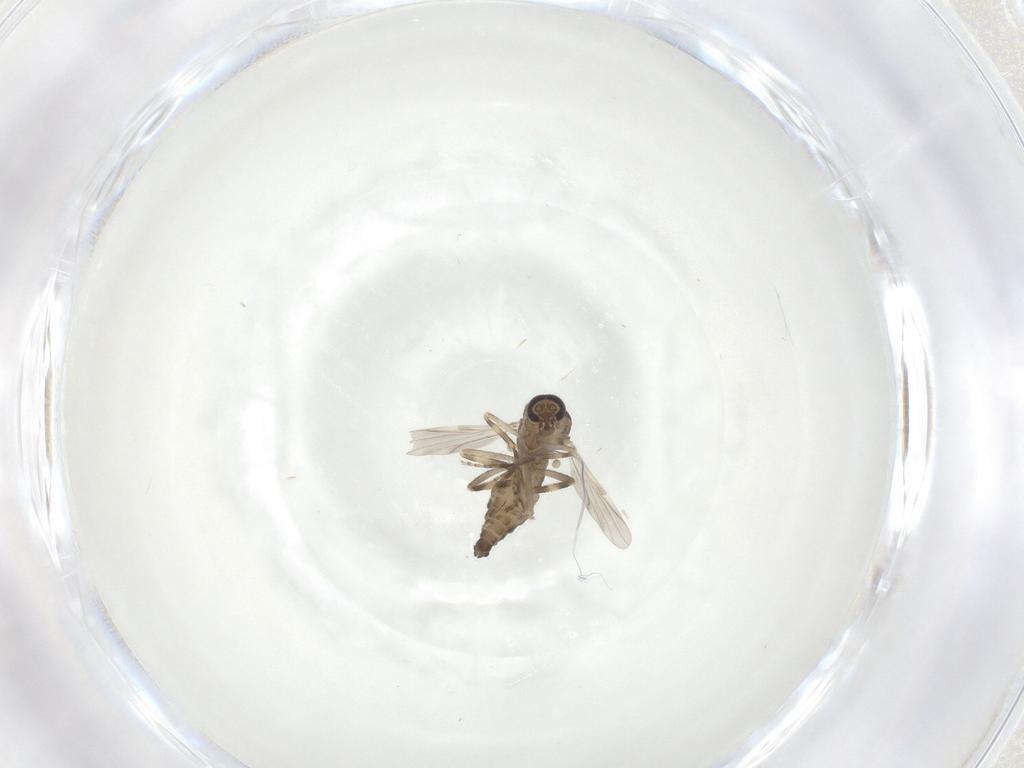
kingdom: Animalia
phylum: Arthropoda
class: Insecta
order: Diptera
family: Ceratopogonidae
